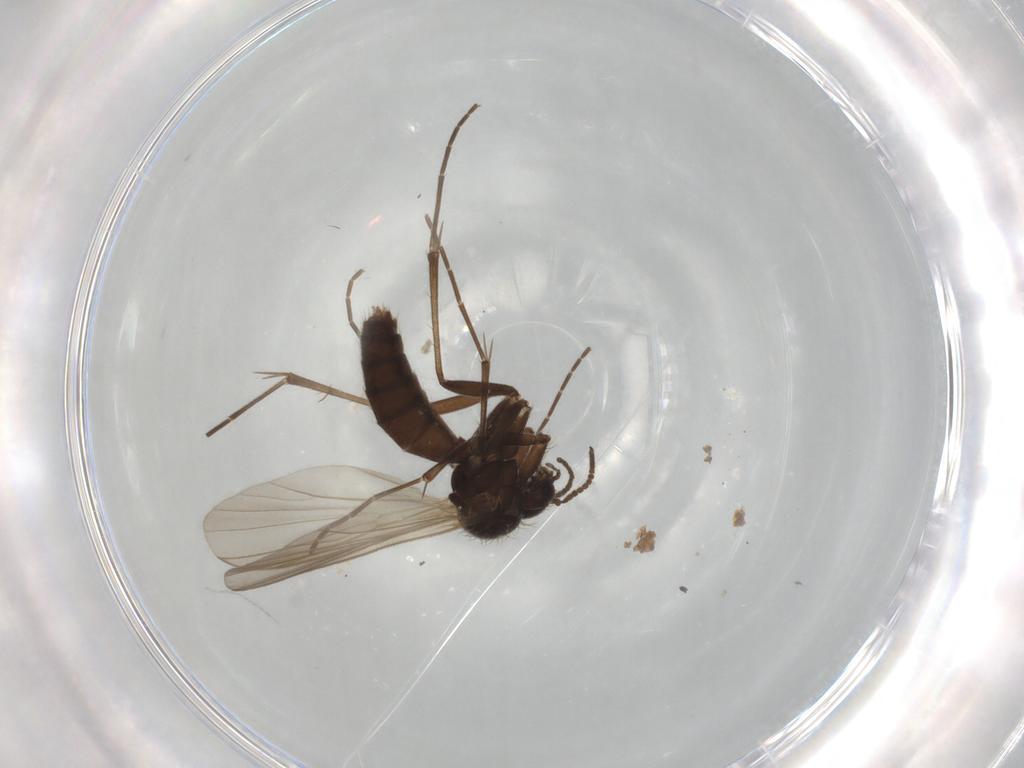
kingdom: Animalia
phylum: Arthropoda
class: Insecta
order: Diptera
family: Mycetophilidae
